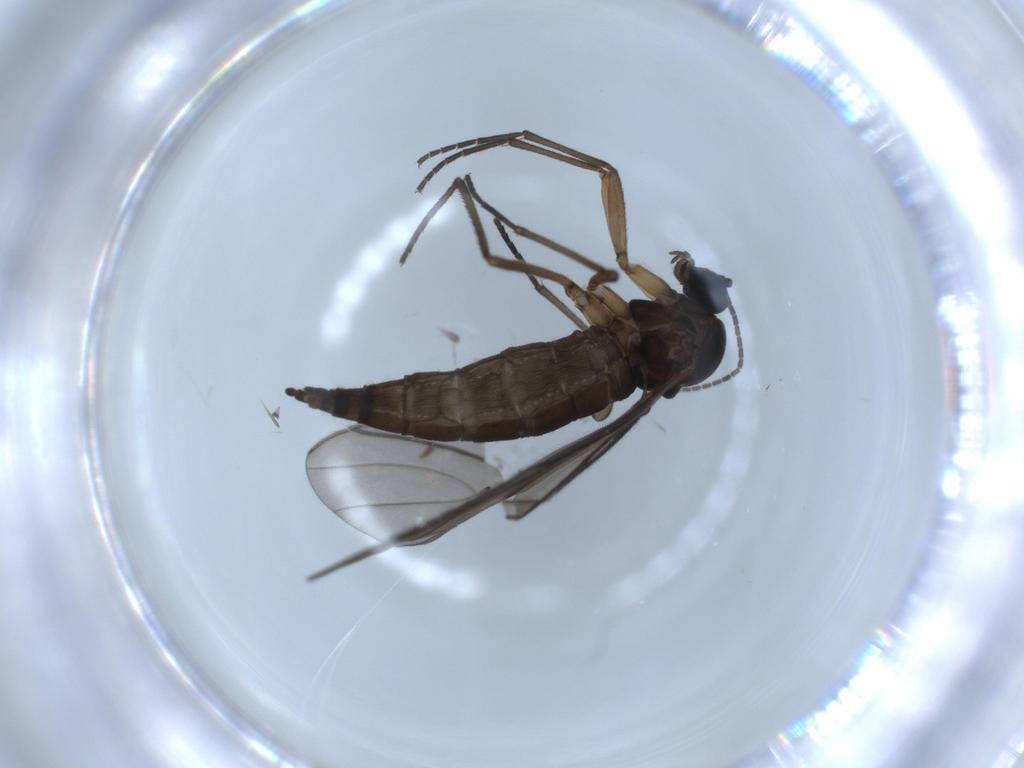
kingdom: Animalia
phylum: Arthropoda
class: Insecta
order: Diptera
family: Sciaridae
